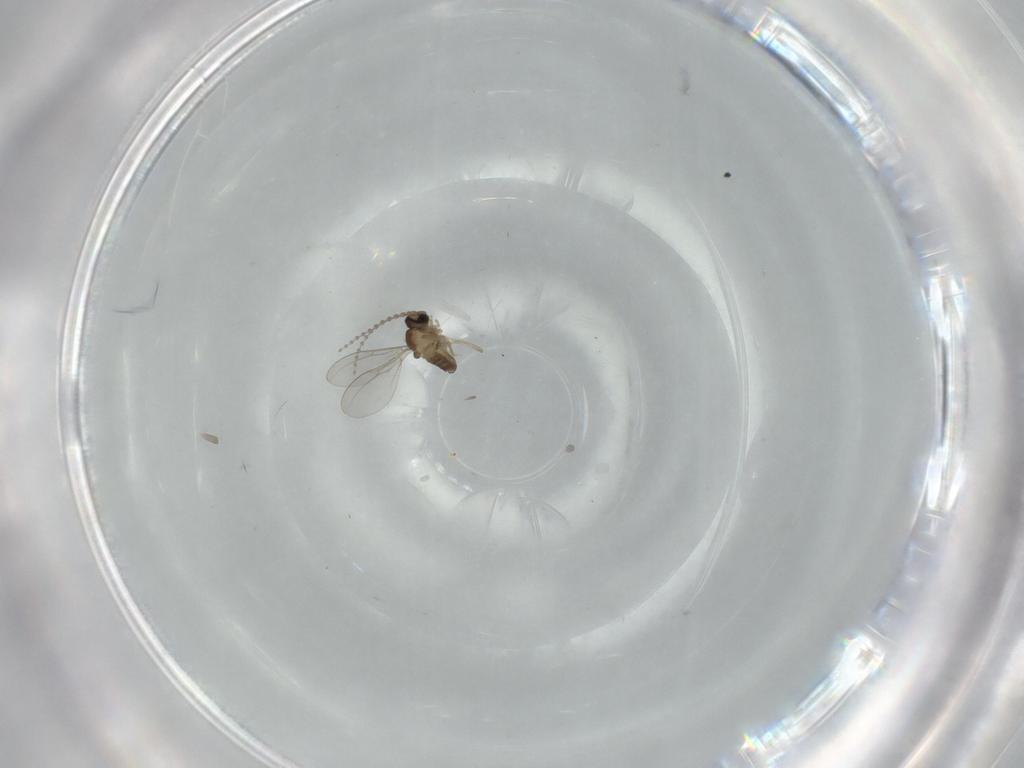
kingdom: Animalia
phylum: Arthropoda
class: Insecta
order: Diptera
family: Cecidomyiidae
